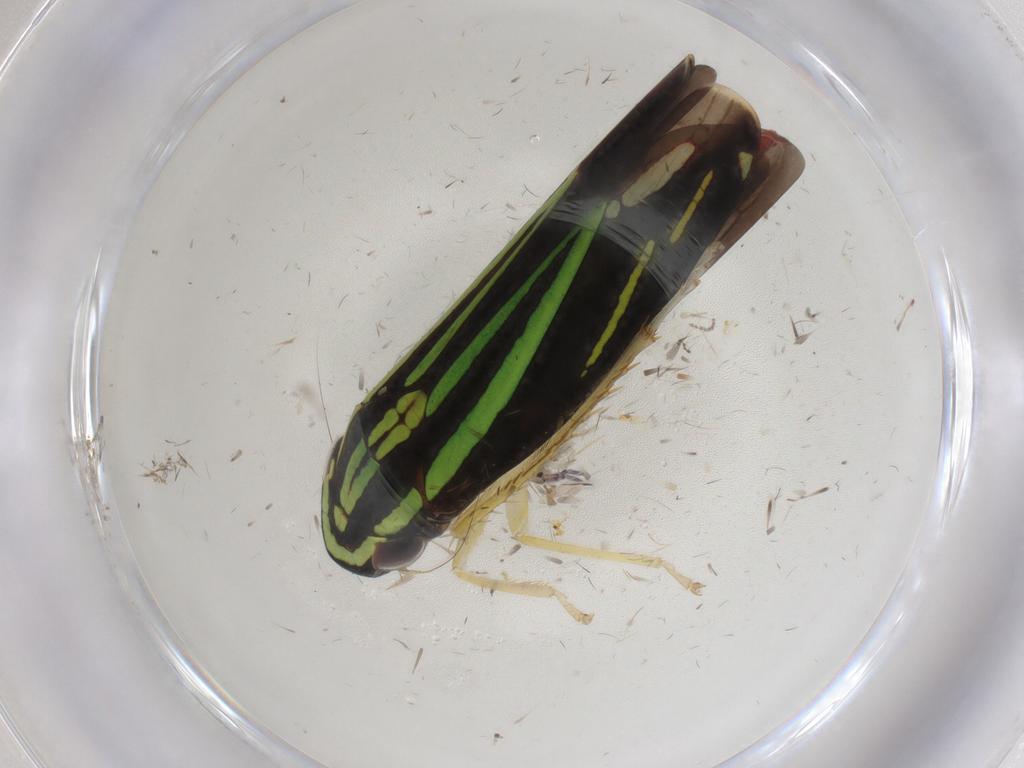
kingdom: Animalia
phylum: Arthropoda
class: Insecta
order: Hemiptera
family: Cicadellidae
